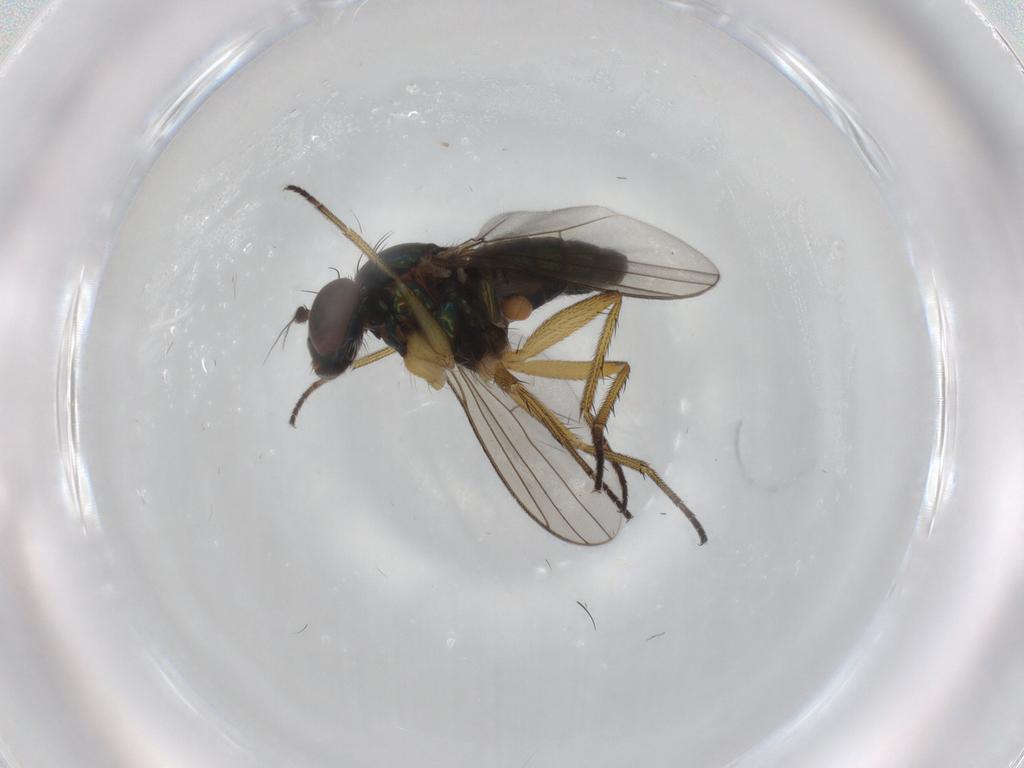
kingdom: Animalia
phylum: Arthropoda
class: Insecta
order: Diptera
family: Dolichopodidae
